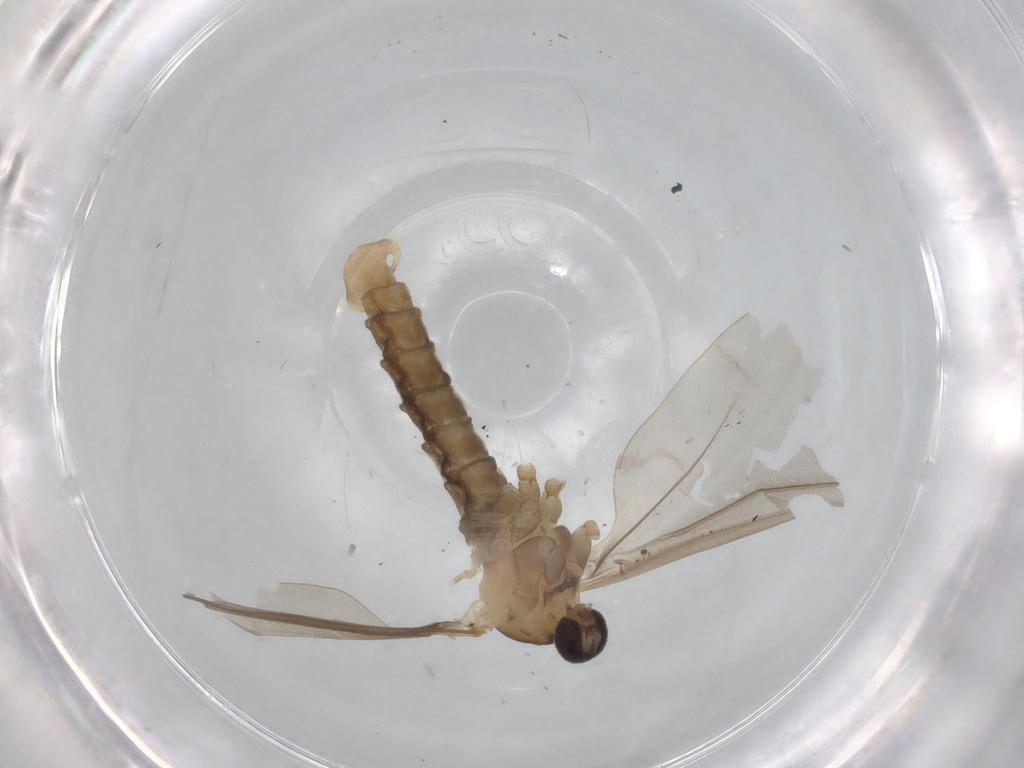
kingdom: Animalia
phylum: Arthropoda
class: Insecta
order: Diptera
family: Cecidomyiidae
